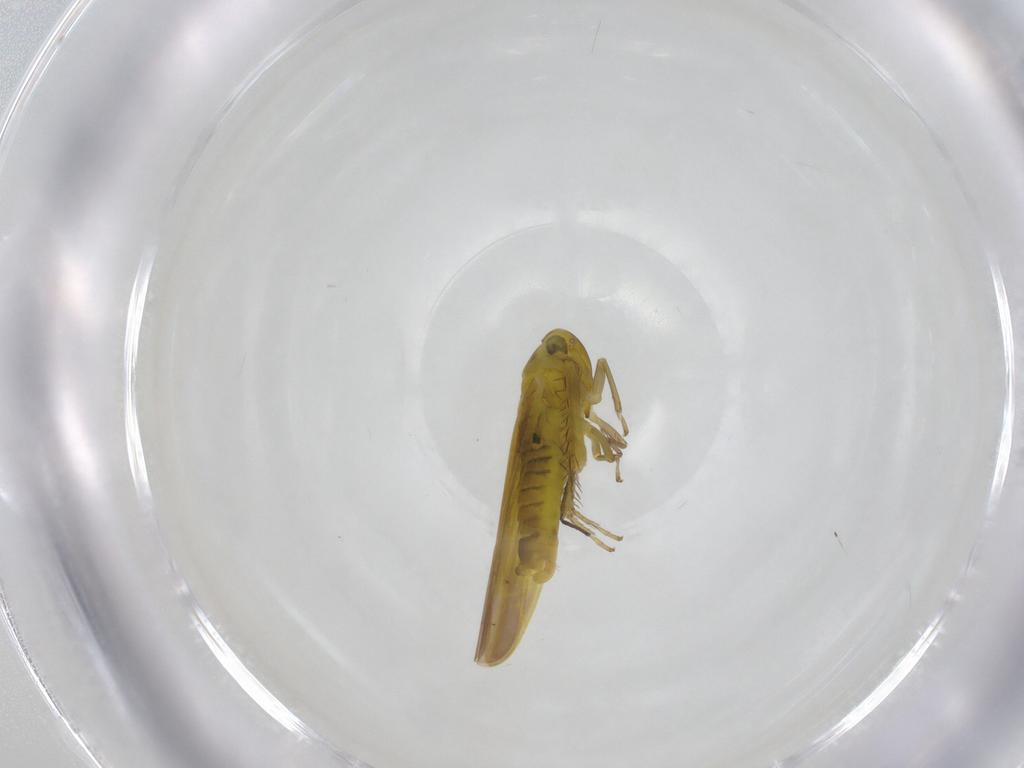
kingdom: Animalia
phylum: Arthropoda
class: Insecta
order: Hemiptera
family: Cicadellidae
